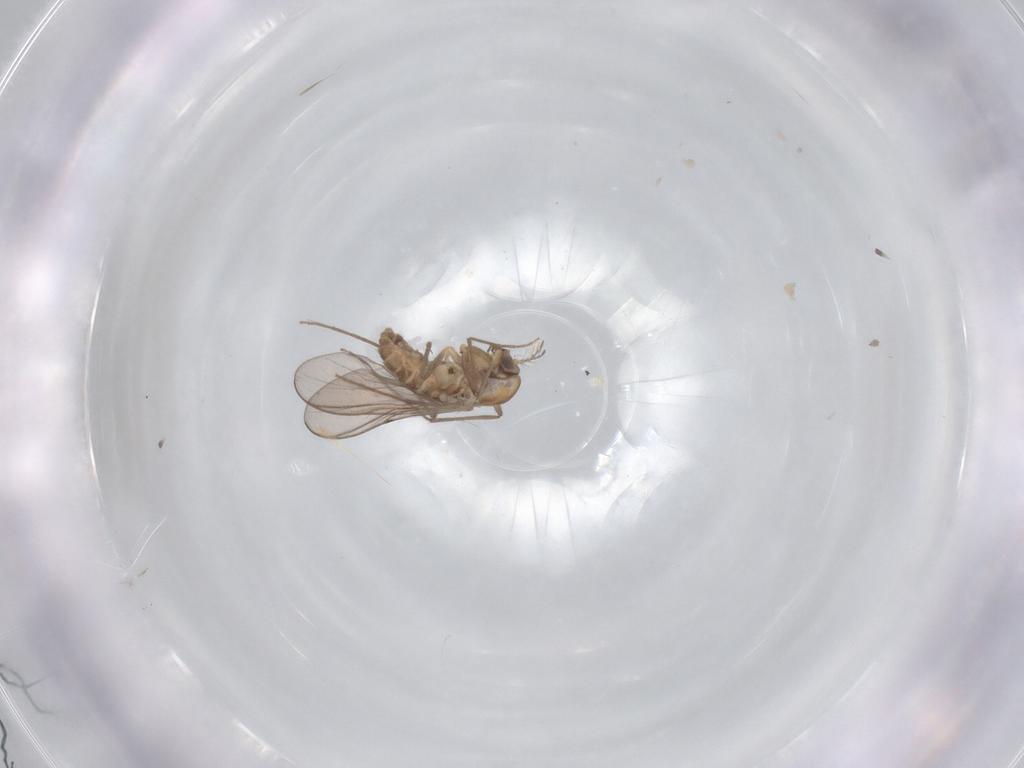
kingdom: Animalia
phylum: Arthropoda
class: Insecta
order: Diptera
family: Chironomidae
